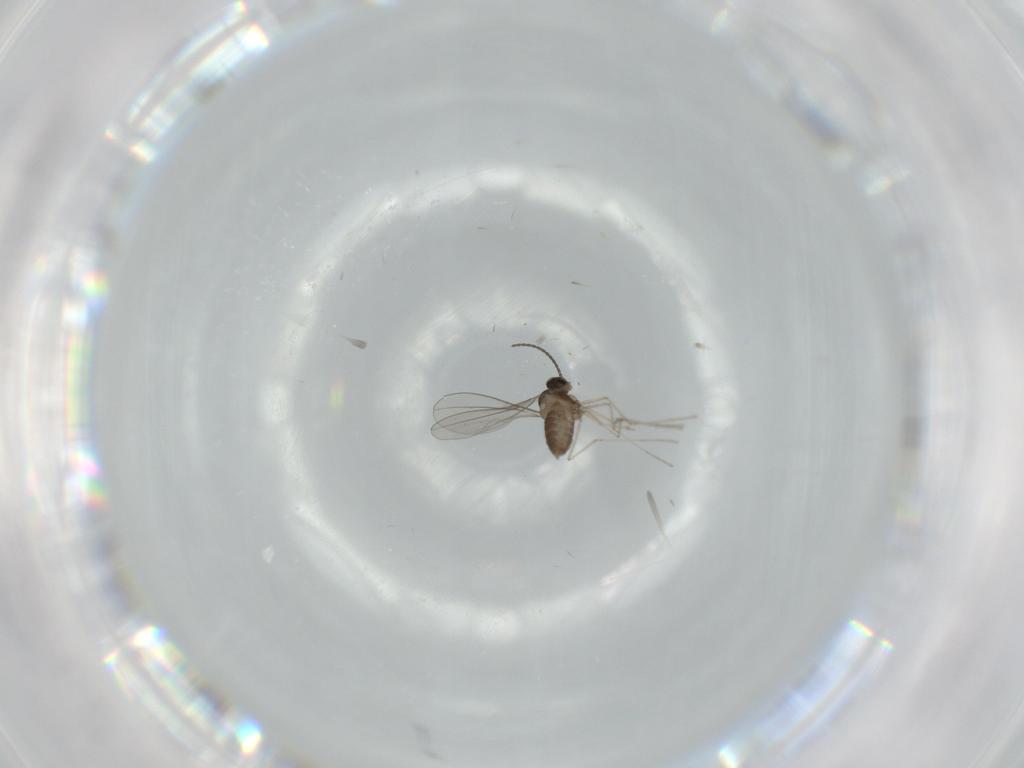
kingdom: Animalia
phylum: Arthropoda
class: Insecta
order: Diptera
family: Cecidomyiidae
